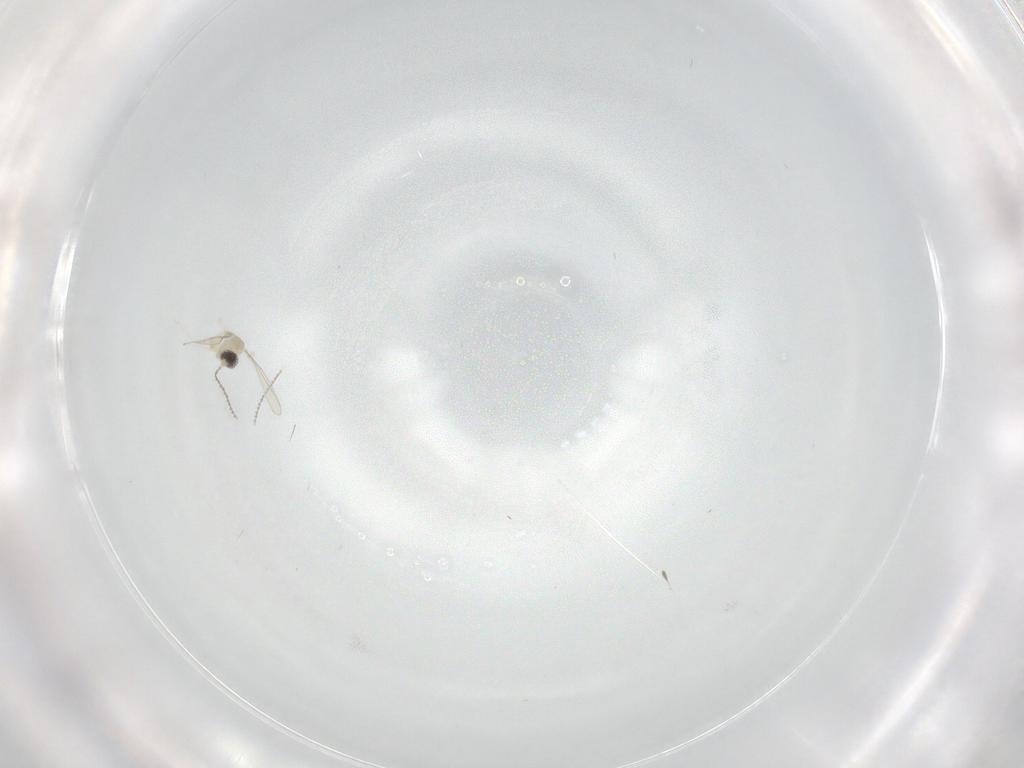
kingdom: Animalia
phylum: Arthropoda
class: Insecta
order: Diptera
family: Cecidomyiidae
